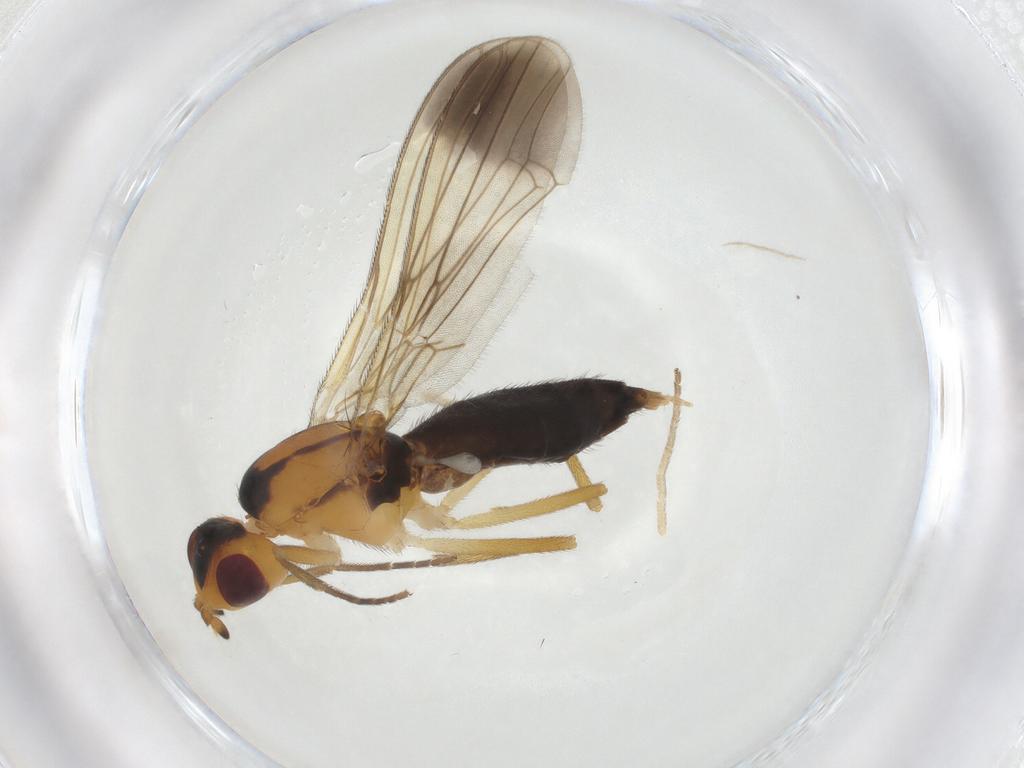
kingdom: Animalia
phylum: Arthropoda
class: Insecta
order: Diptera
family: Psilidae
